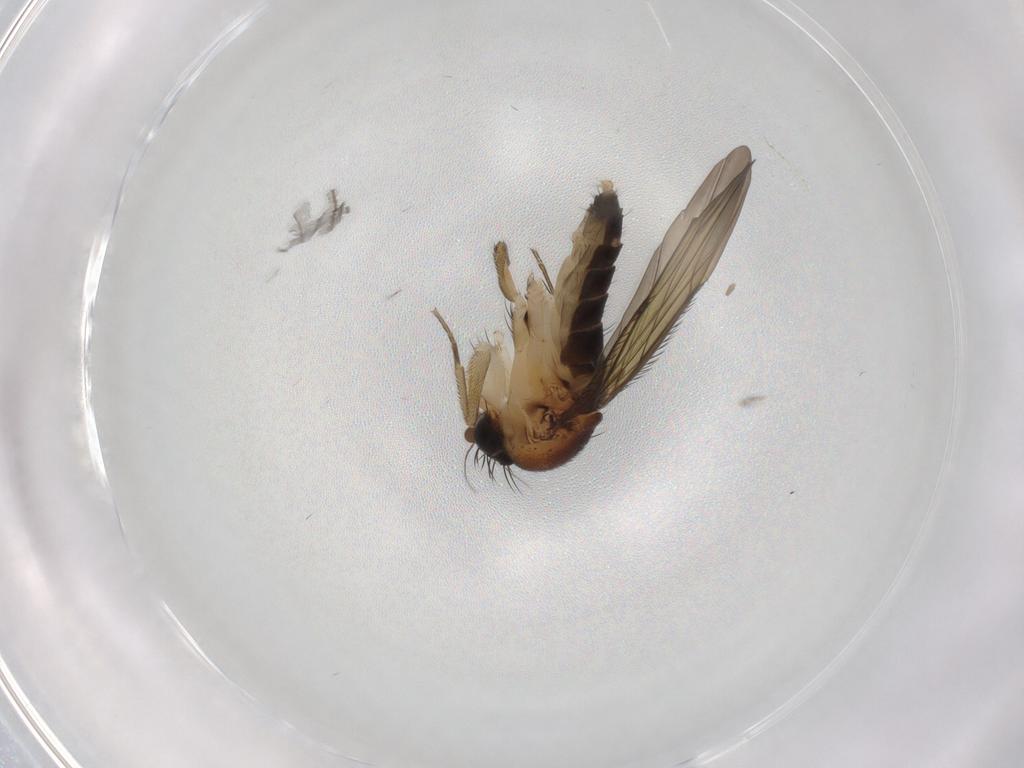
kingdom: Animalia
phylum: Arthropoda
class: Insecta
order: Diptera
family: Phoridae
